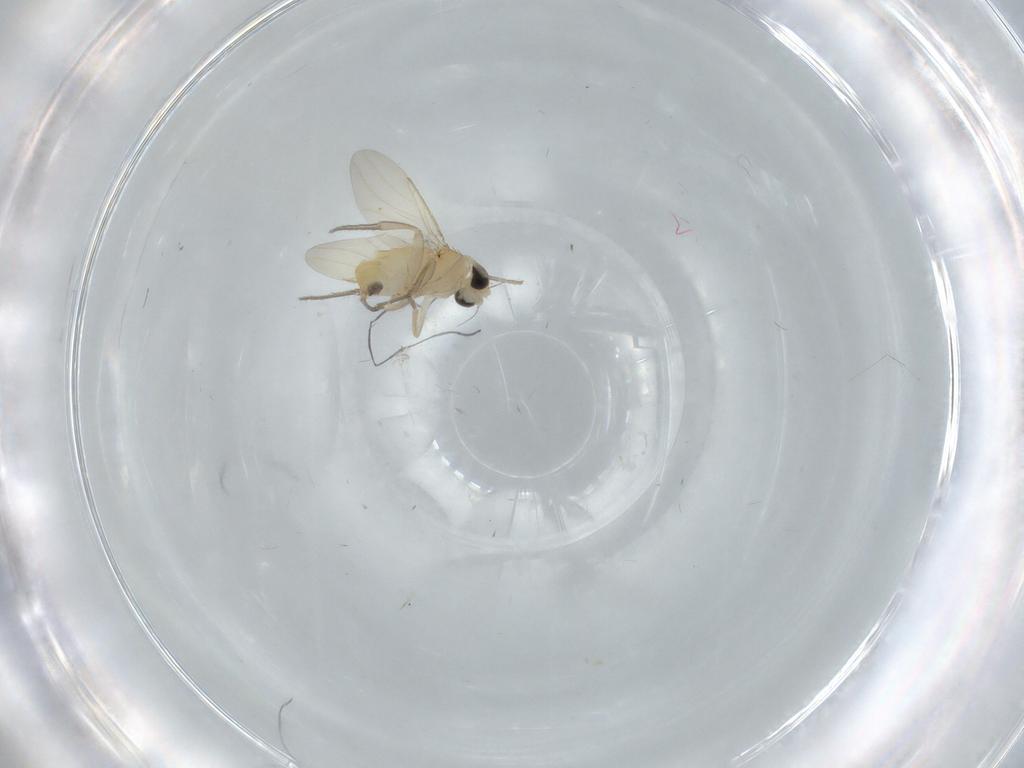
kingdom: Animalia
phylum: Arthropoda
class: Insecta
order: Diptera
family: Phoridae
